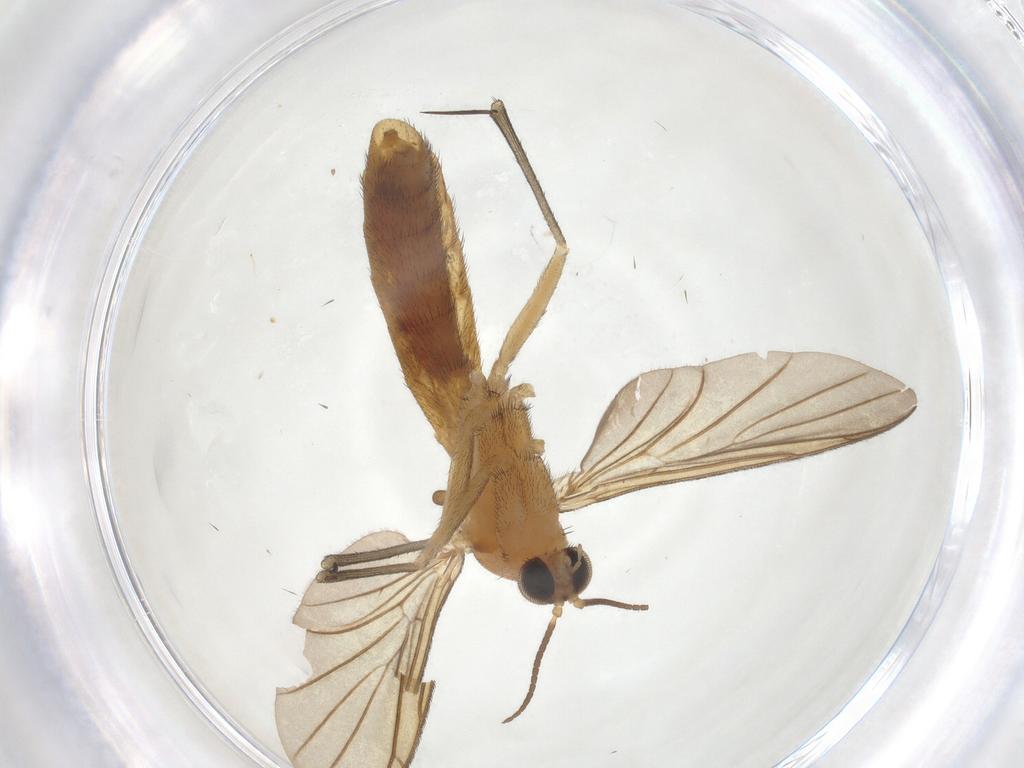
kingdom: Animalia
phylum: Arthropoda
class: Insecta
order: Diptera
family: Keroplatidae
